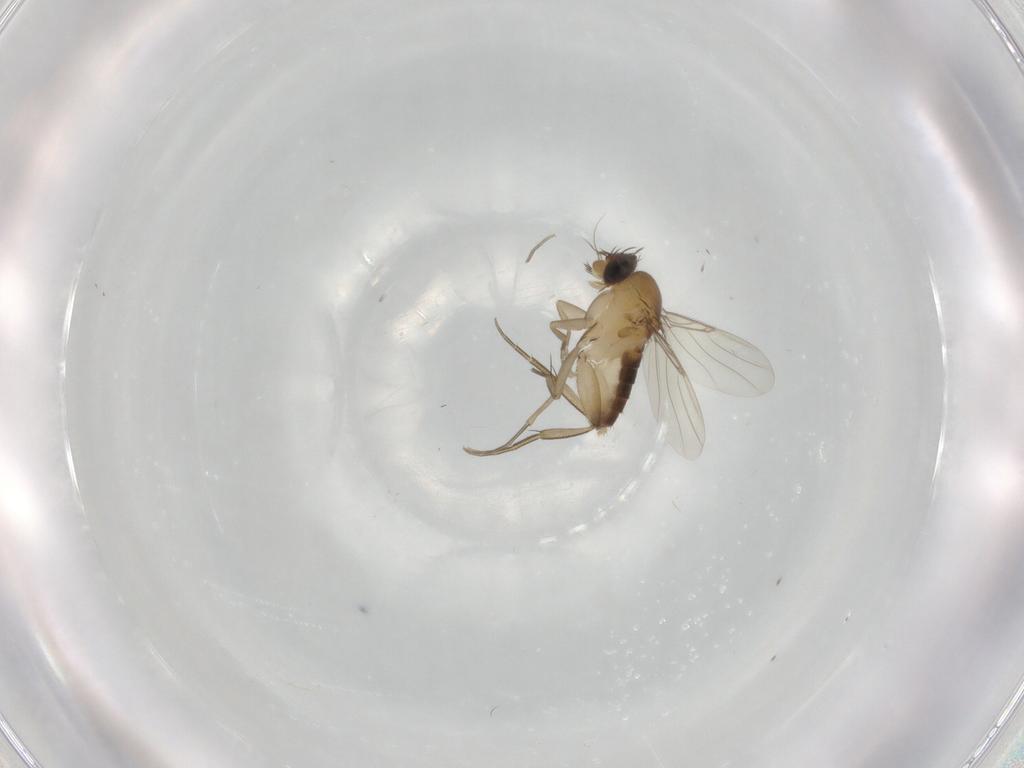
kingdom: Animalia
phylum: Arthropoda
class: Insecta
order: Diptera
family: Phoridae
